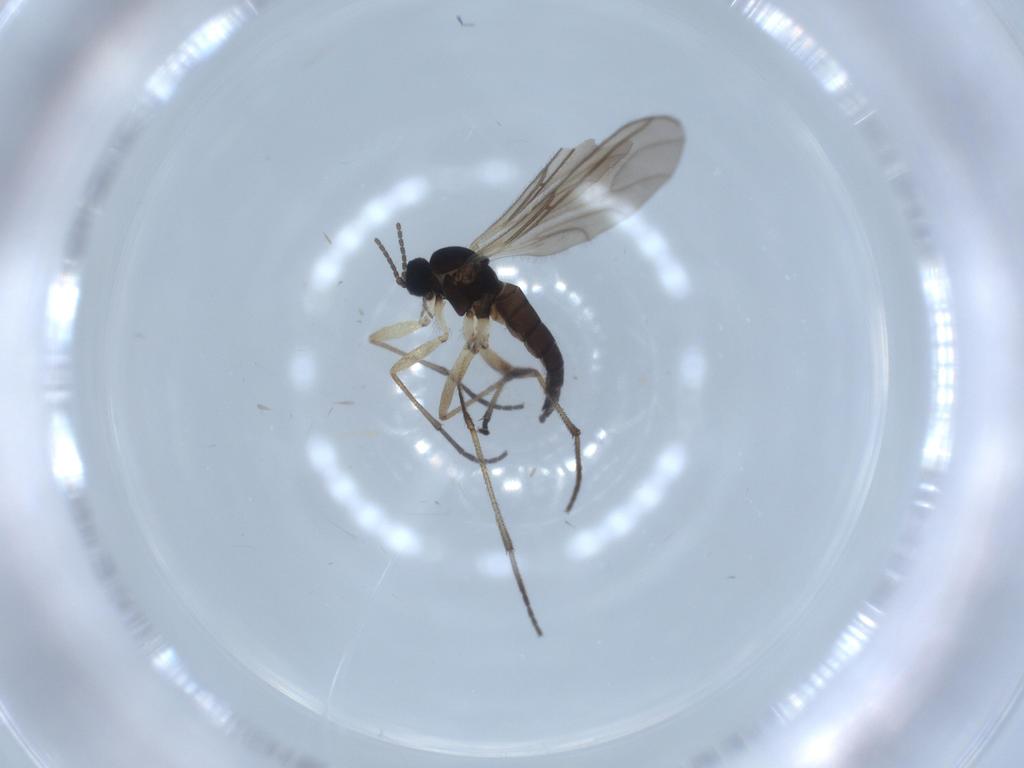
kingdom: Animalia
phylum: Arthropoda
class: Insecta
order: Diptera
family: Sciaridae
